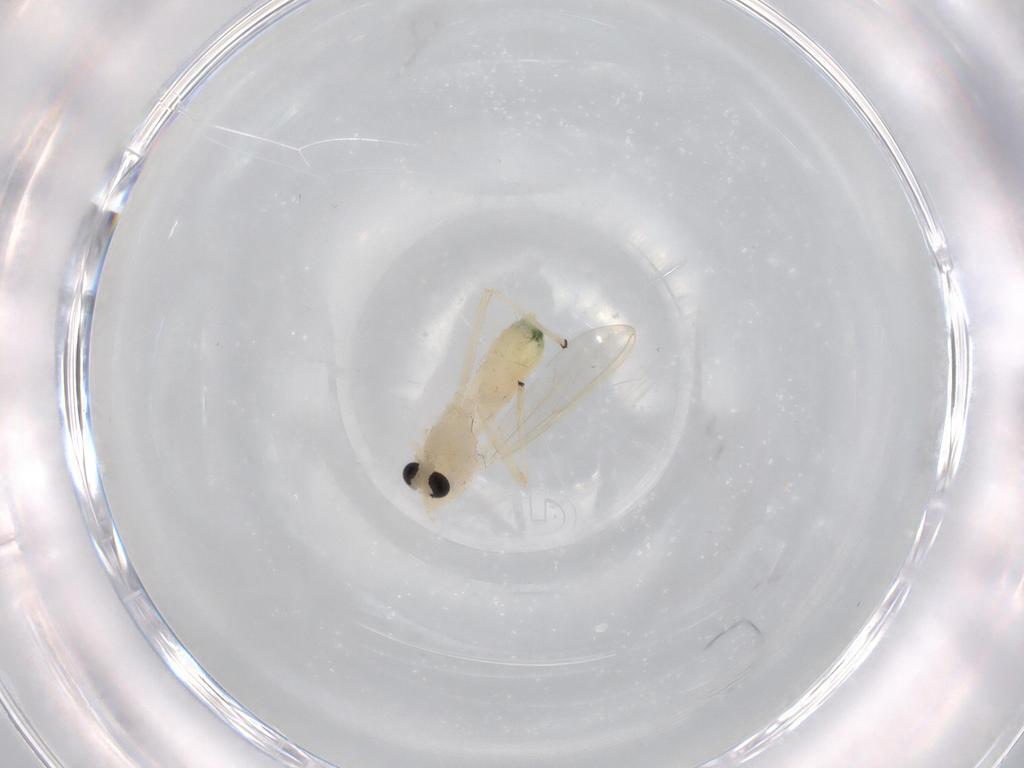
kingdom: Animalia
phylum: Arthropoda
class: Insecta
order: Diptera
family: Chironomidae
